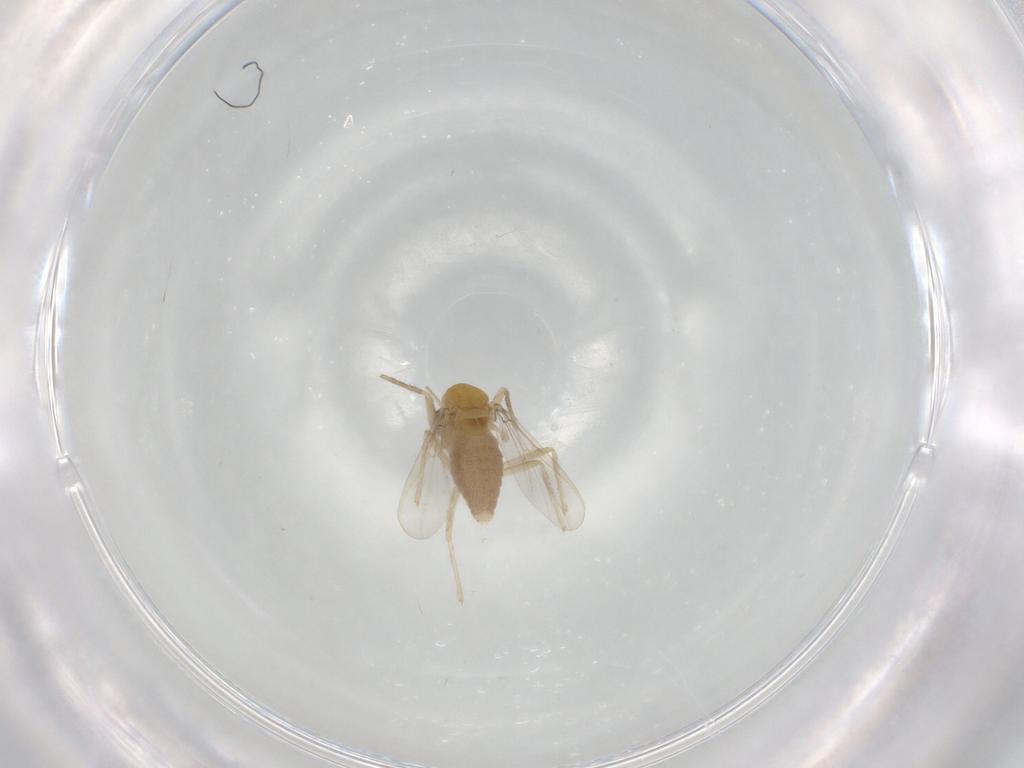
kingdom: Animalia
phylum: Arthropoda
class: Insecta
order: Diptera
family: Chironomidae
